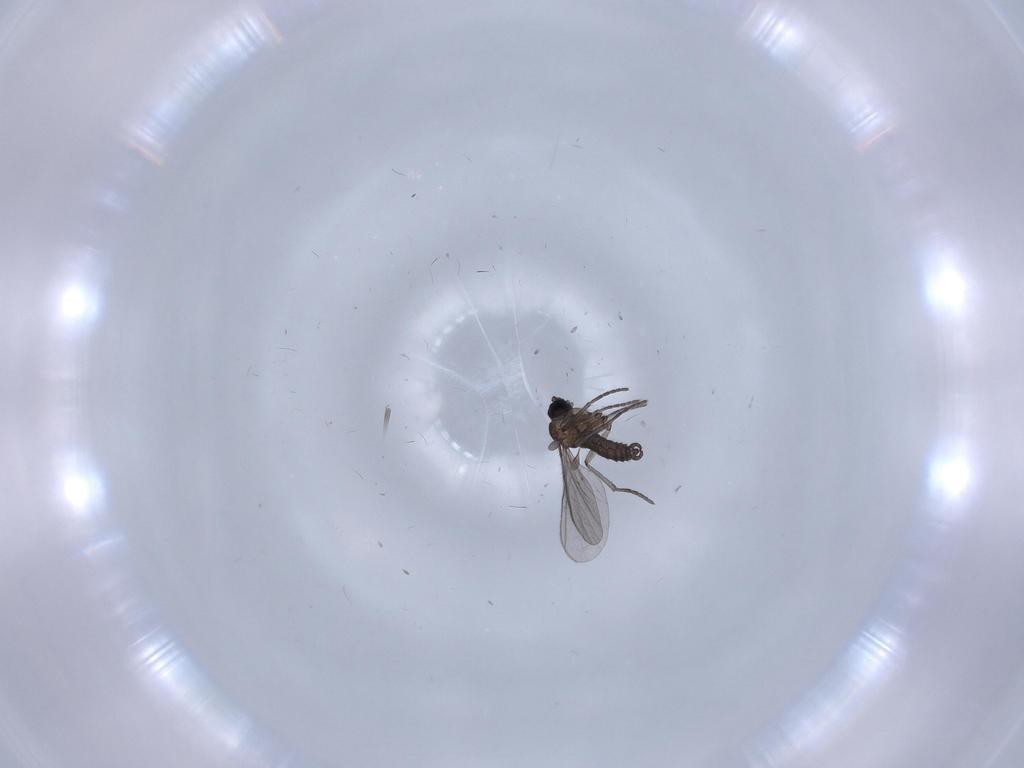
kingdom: Animalia
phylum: Arthropoda
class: Insecta
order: Diptera
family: Chironomidae
